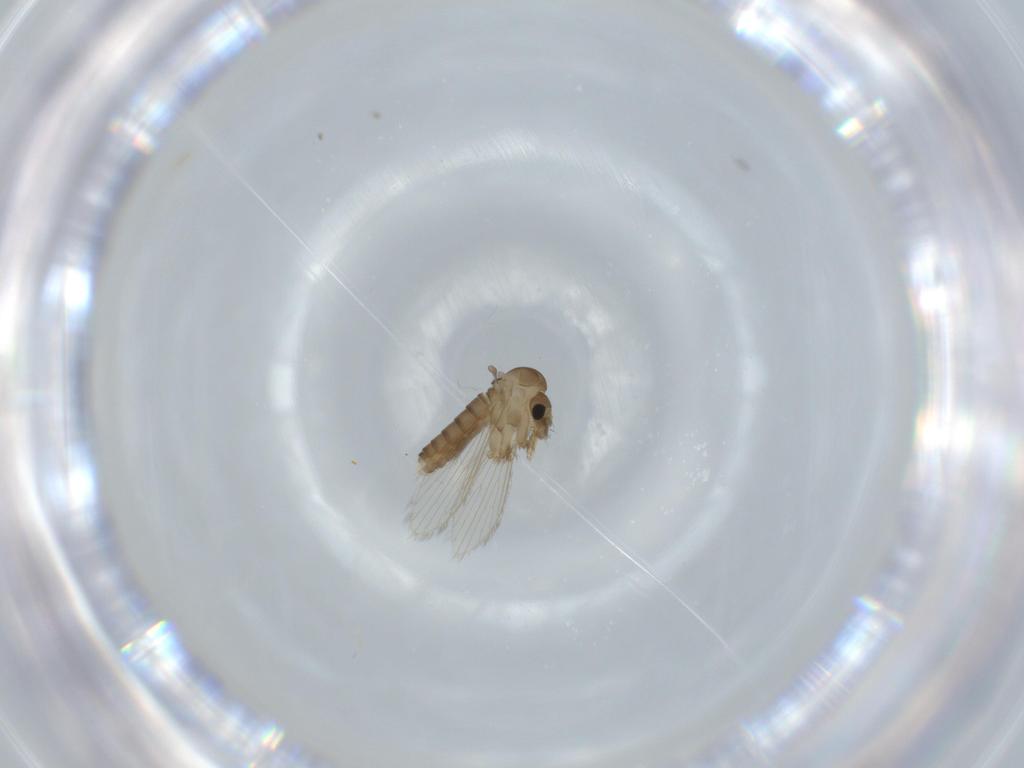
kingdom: Animalia
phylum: Arthropoda
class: Insecta
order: Diptera
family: Psychodidae
